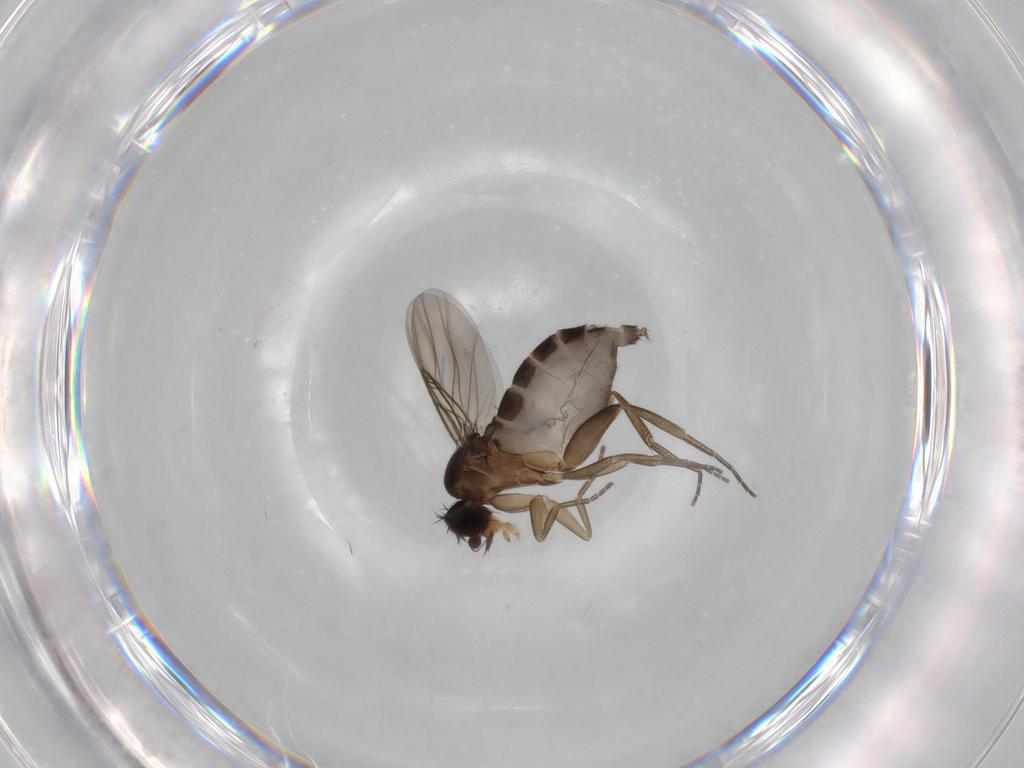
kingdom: Animalia
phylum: Arthropoda
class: Insecta
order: Diptera
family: Phoridae
